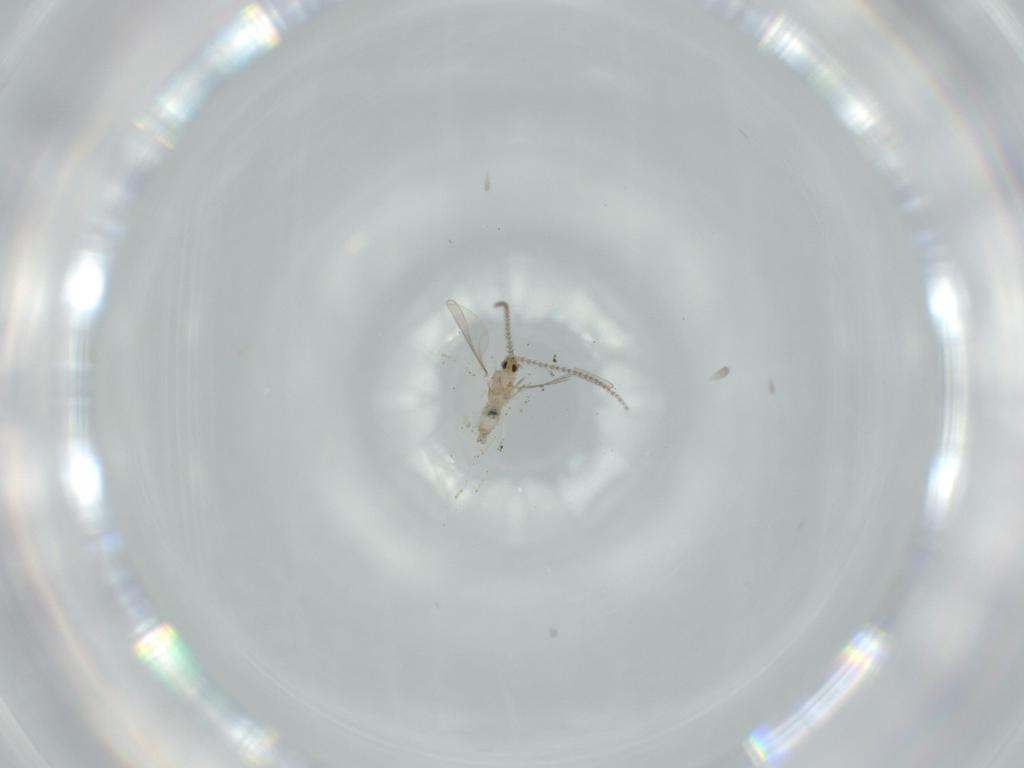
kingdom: Animalia
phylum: Arthropoda
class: Insecta
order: Diptera
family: Cecidomyiidae
